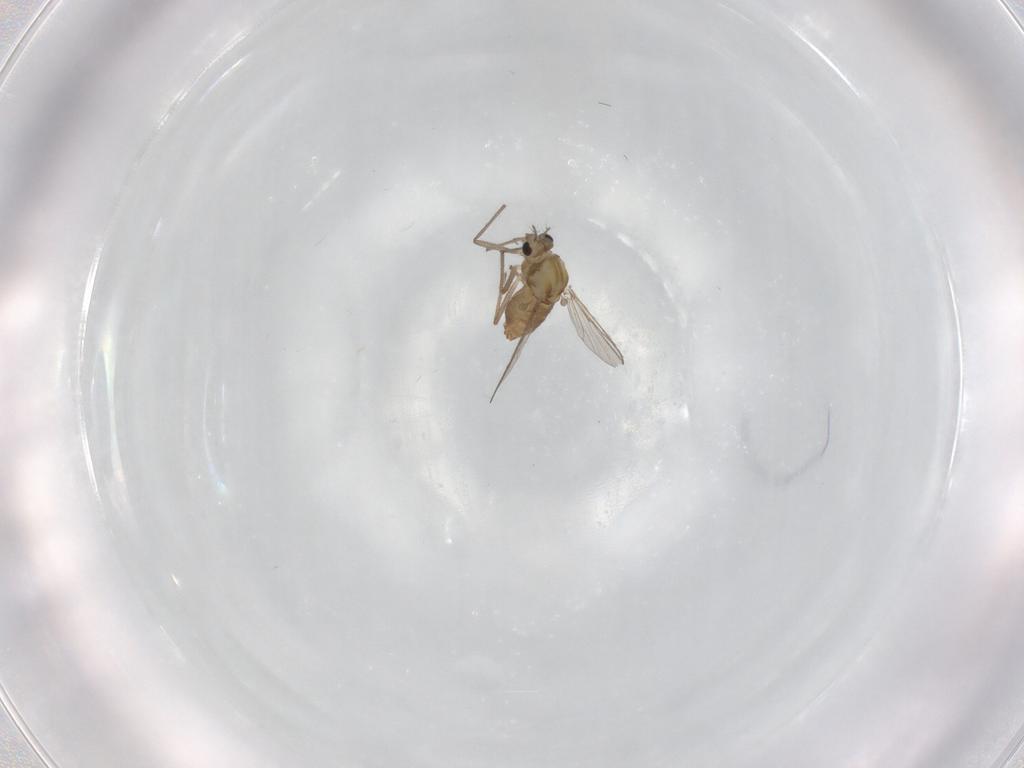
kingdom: Animalia
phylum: Arthropoda
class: Insecta
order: Diptera
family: Chironomidae
